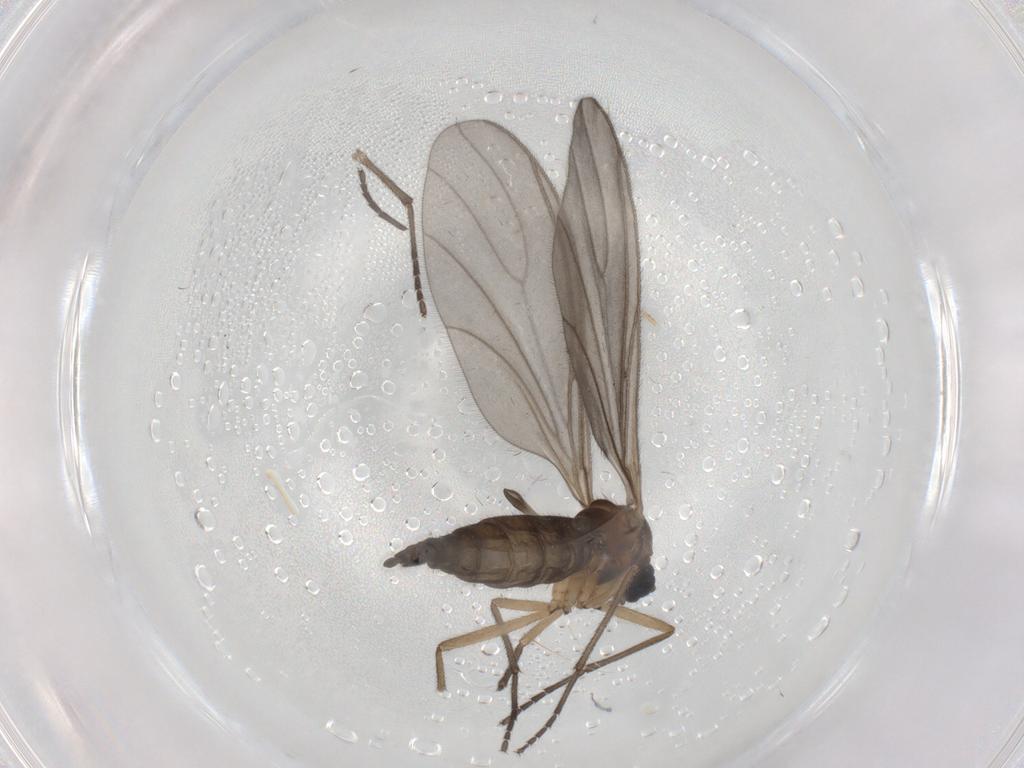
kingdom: Animalia
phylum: Arthropoda
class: Insecta
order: Diptera
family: Sciaridae
